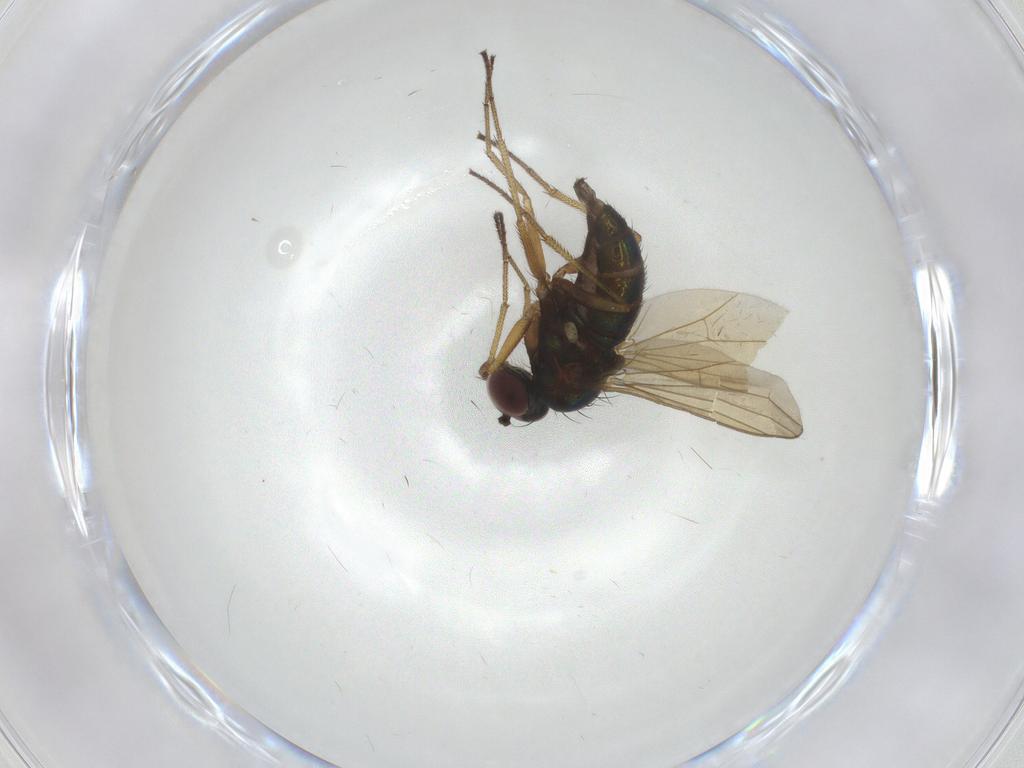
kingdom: Animalia
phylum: Arthropoda
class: Insecta
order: Diptera
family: Dolichopodidae
